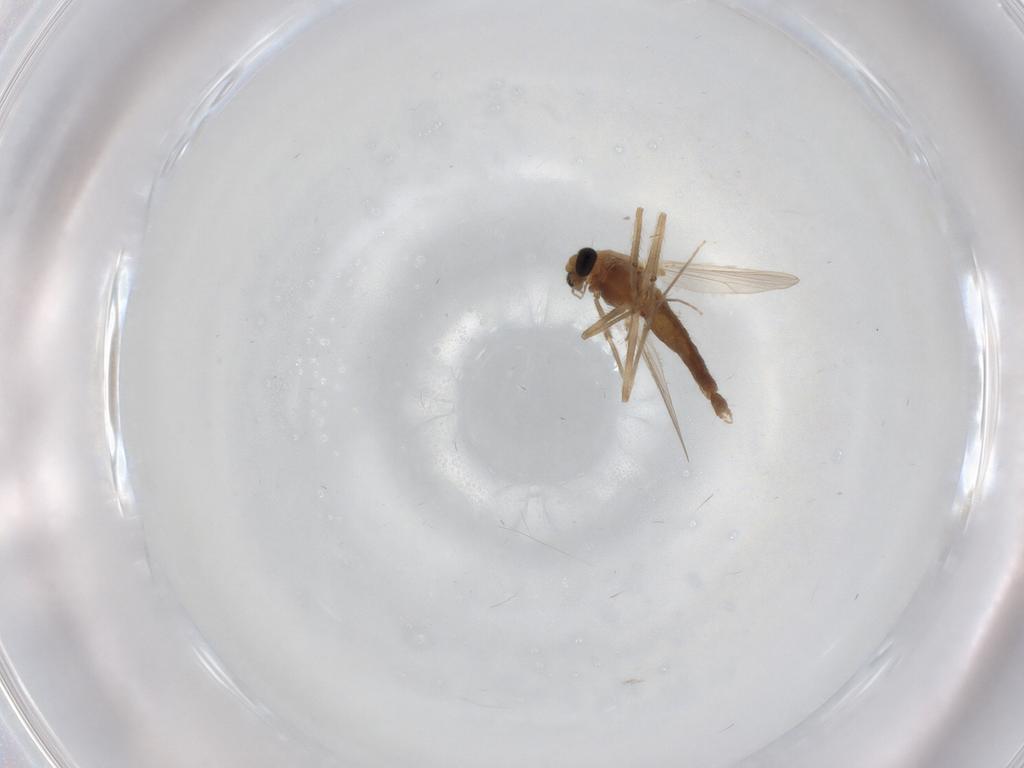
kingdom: Animalia
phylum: Arthropoda
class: Insecta
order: Diptera
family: Chironomidae
